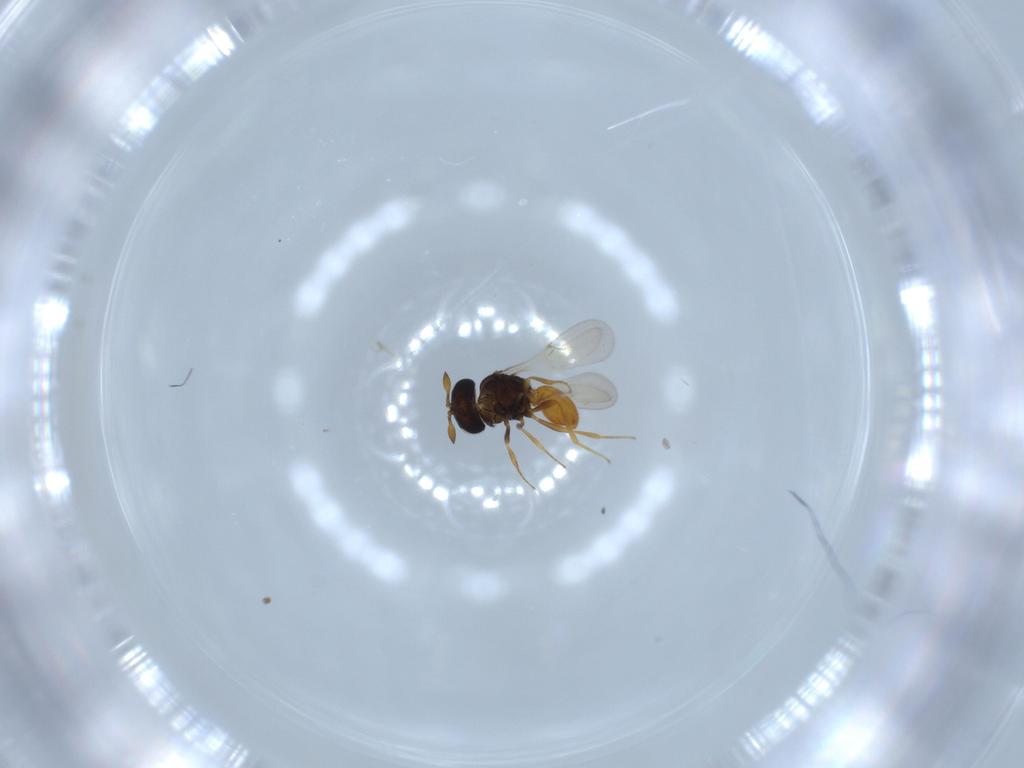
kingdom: Animalia
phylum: Arthropoda
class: Insecta
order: Hymenoptera
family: Scelionidae
